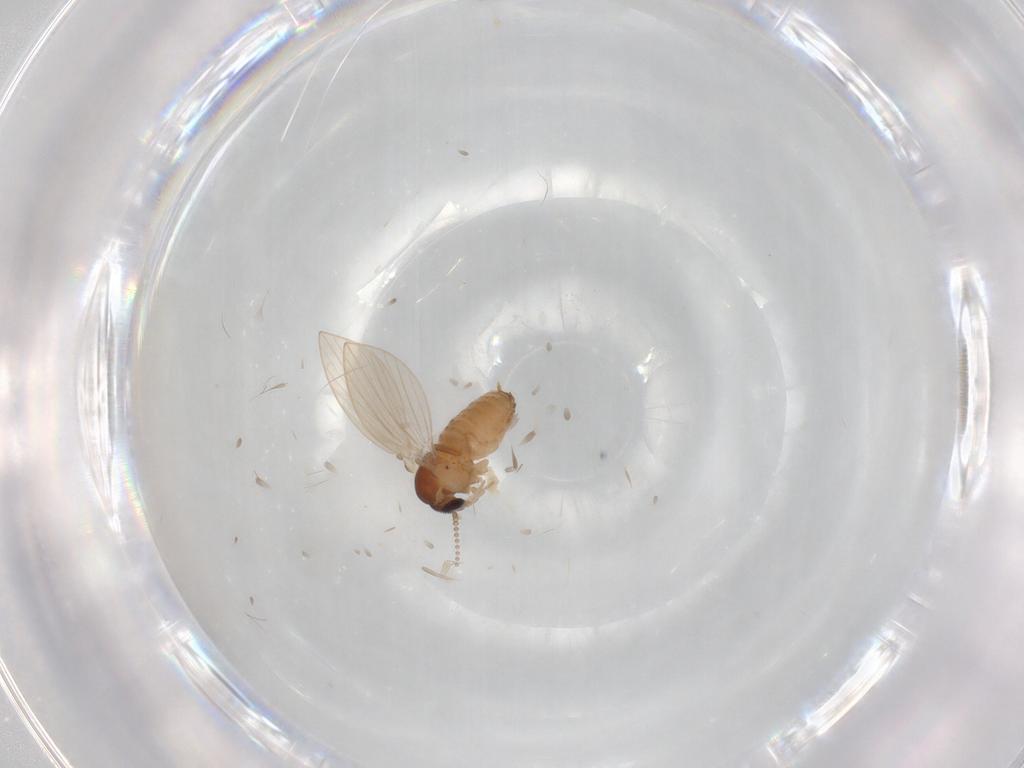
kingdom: Animalia
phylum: Arthropoda
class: Insecta
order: Diptera
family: Psychodidae
